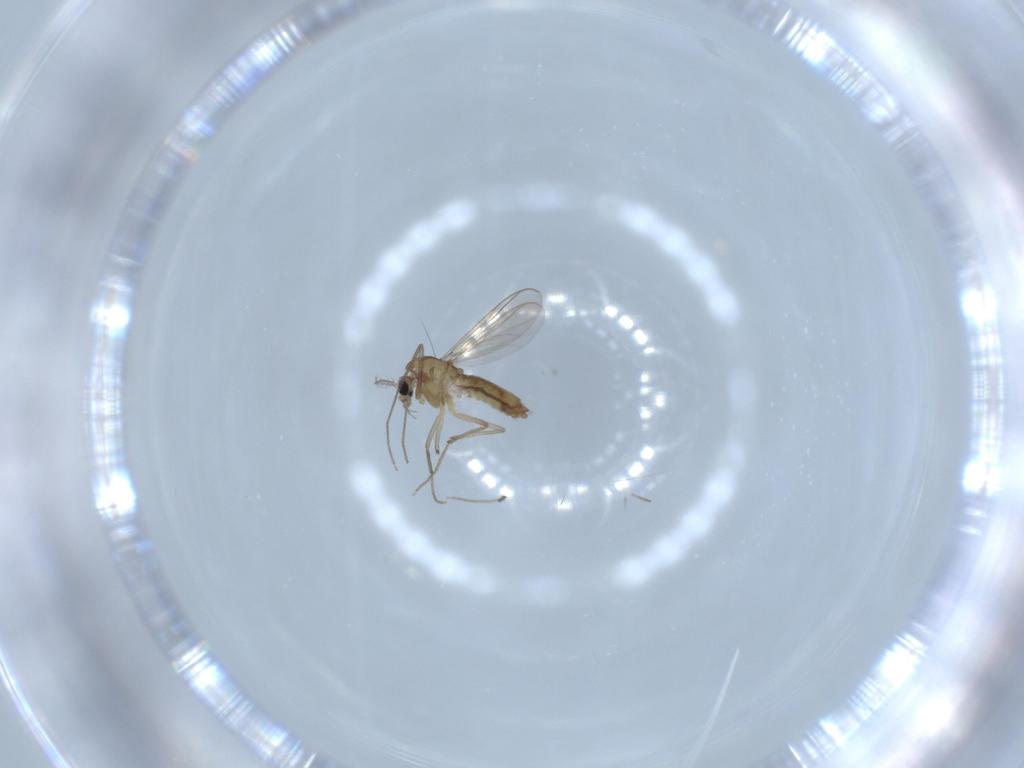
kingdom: Animalia
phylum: Arthropoda
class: Insecta
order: Diptera
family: Chironomidae
